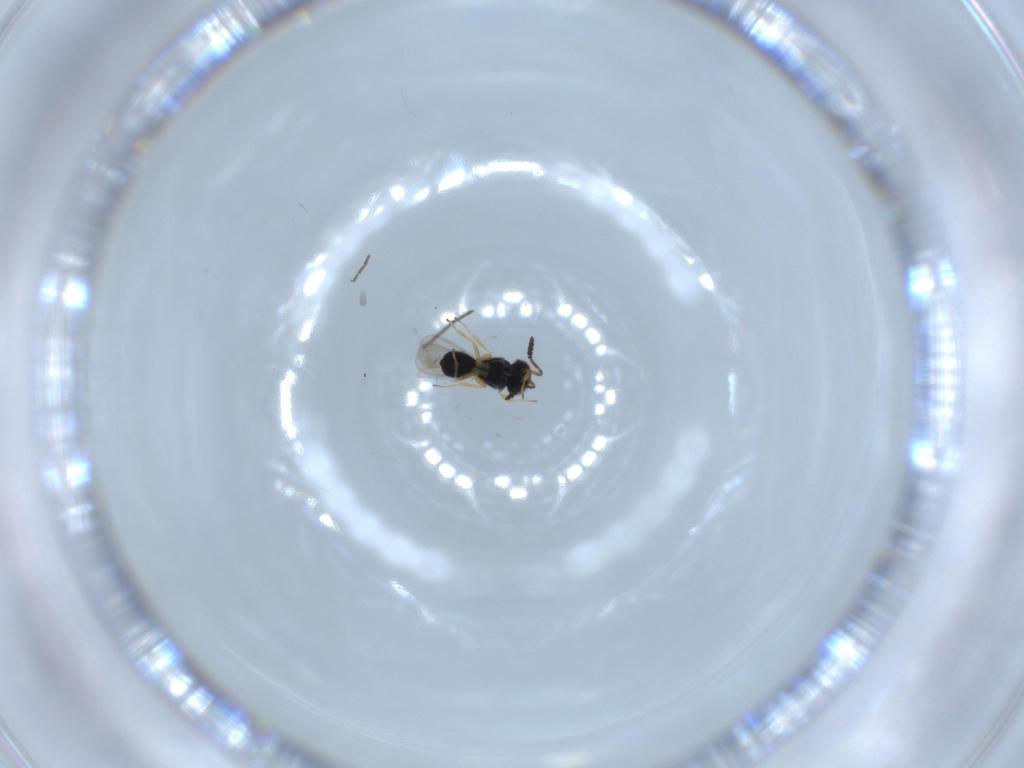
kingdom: Animalia
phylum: Arthropoda
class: Insecta
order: Hymenoptera
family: Scelionidae
